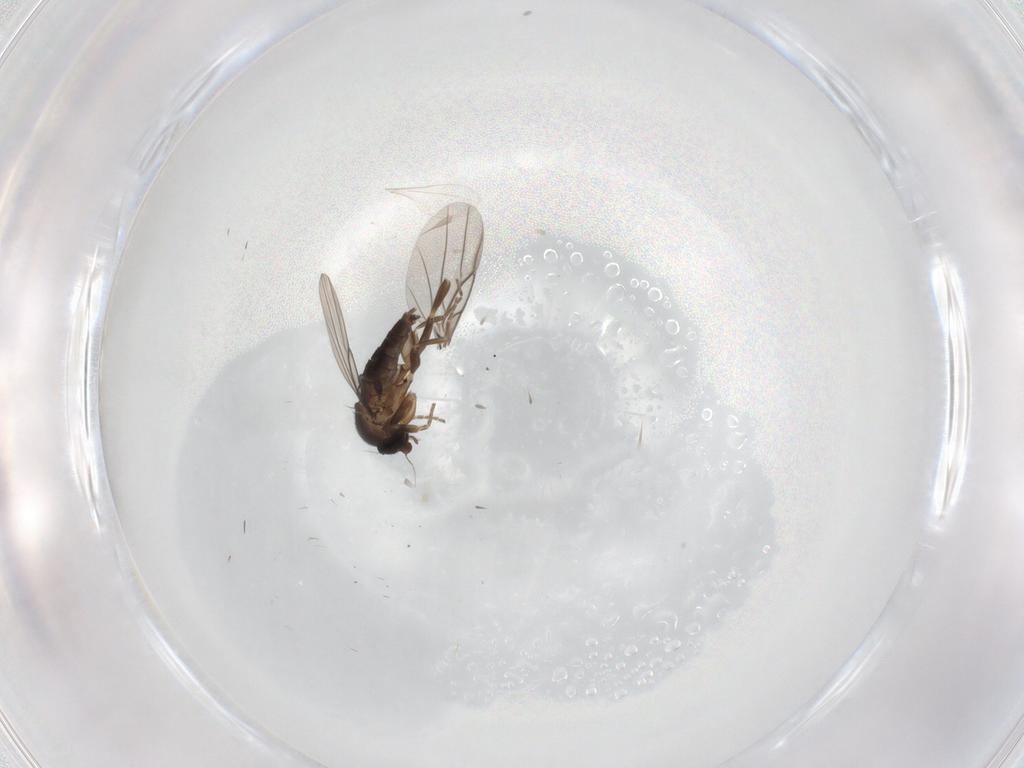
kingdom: Animalia
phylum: Arthropoda
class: Insecta
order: Diptera
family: Cecidomyiidae
